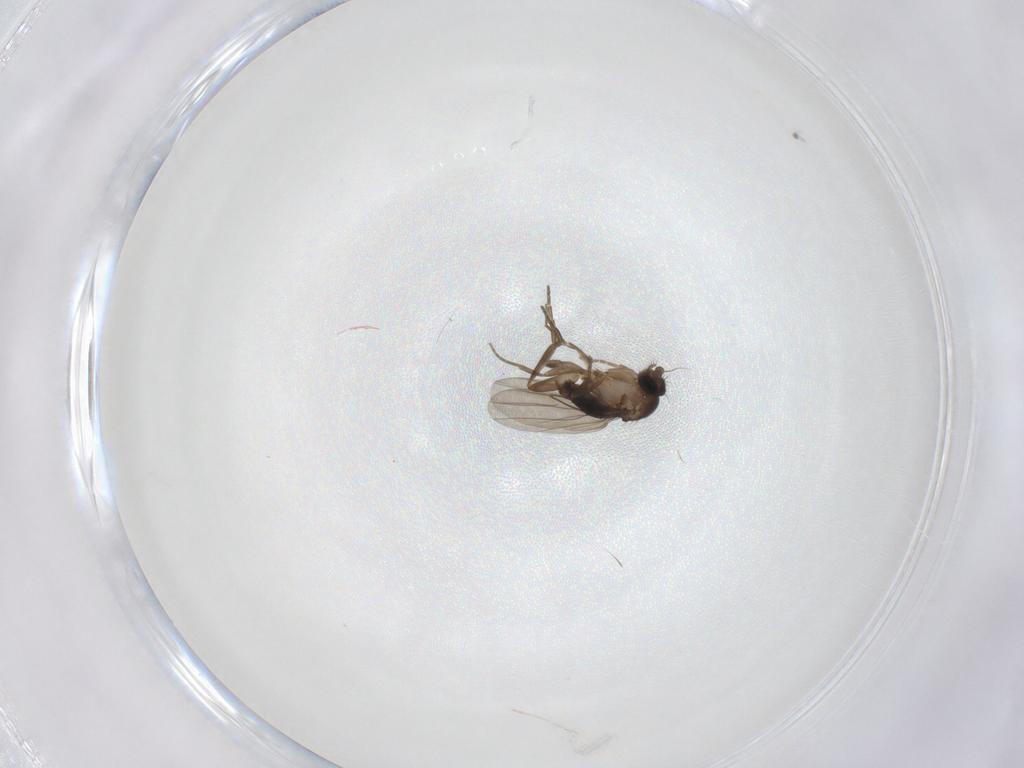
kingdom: Animalia
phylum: Arthropoda
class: Insecta
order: Diptera
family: Phoridae
